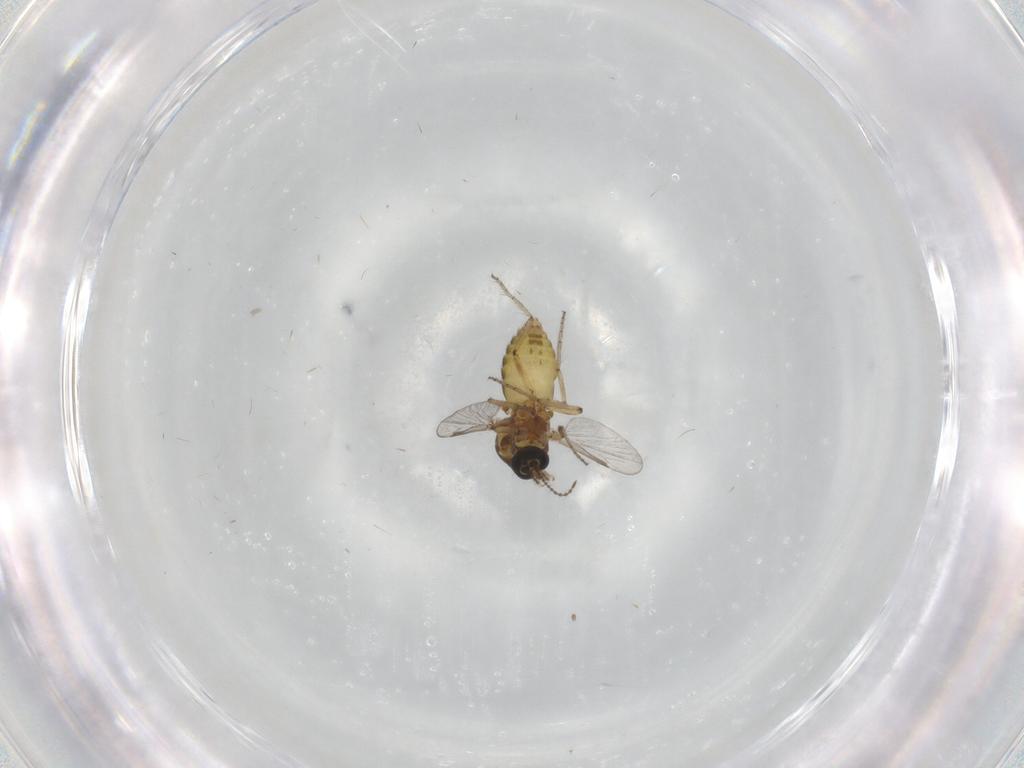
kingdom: Animalia
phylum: Arthropoda
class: Insecta
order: Diptera
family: Ceratopogonidae
